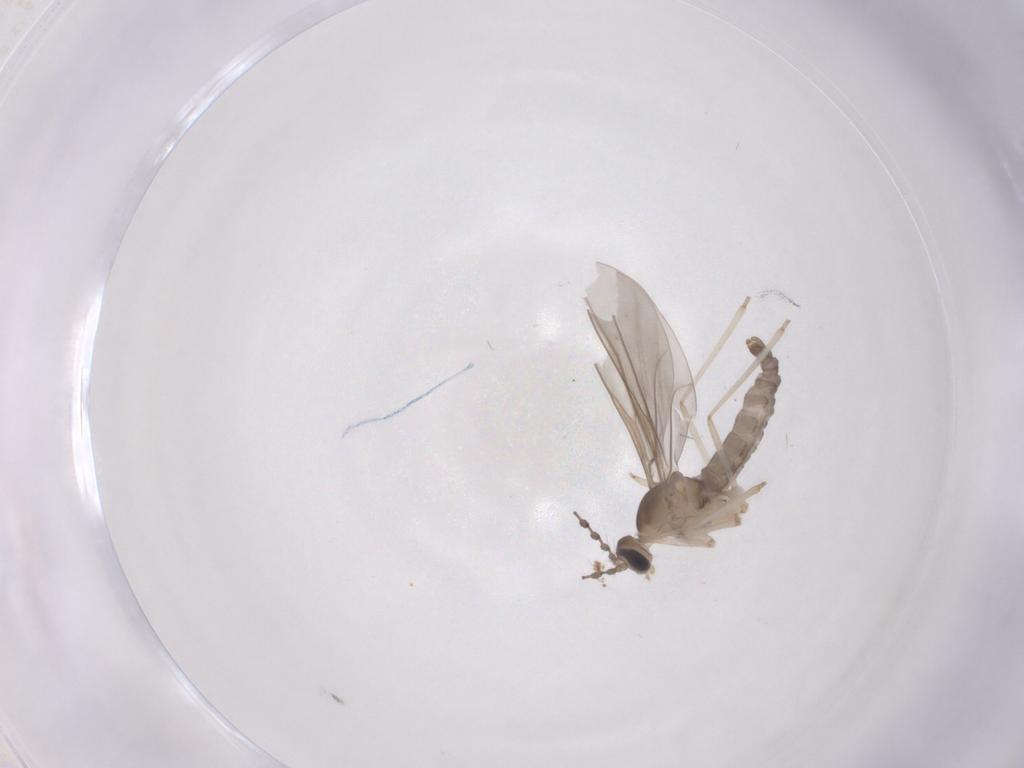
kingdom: Animalia
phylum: Arthropoda
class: Insecta
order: Diptera
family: Cecidomyiidae
